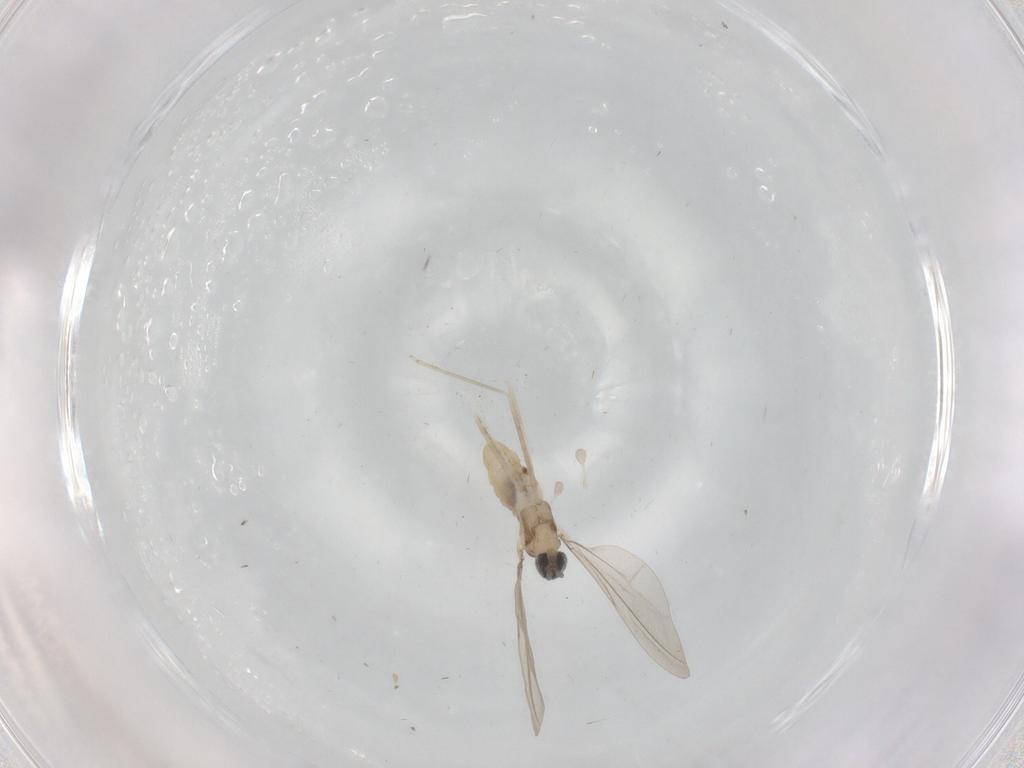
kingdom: Animalia
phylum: Arthropoda
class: Insecta
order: Diptera
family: Cecidomyiidae
